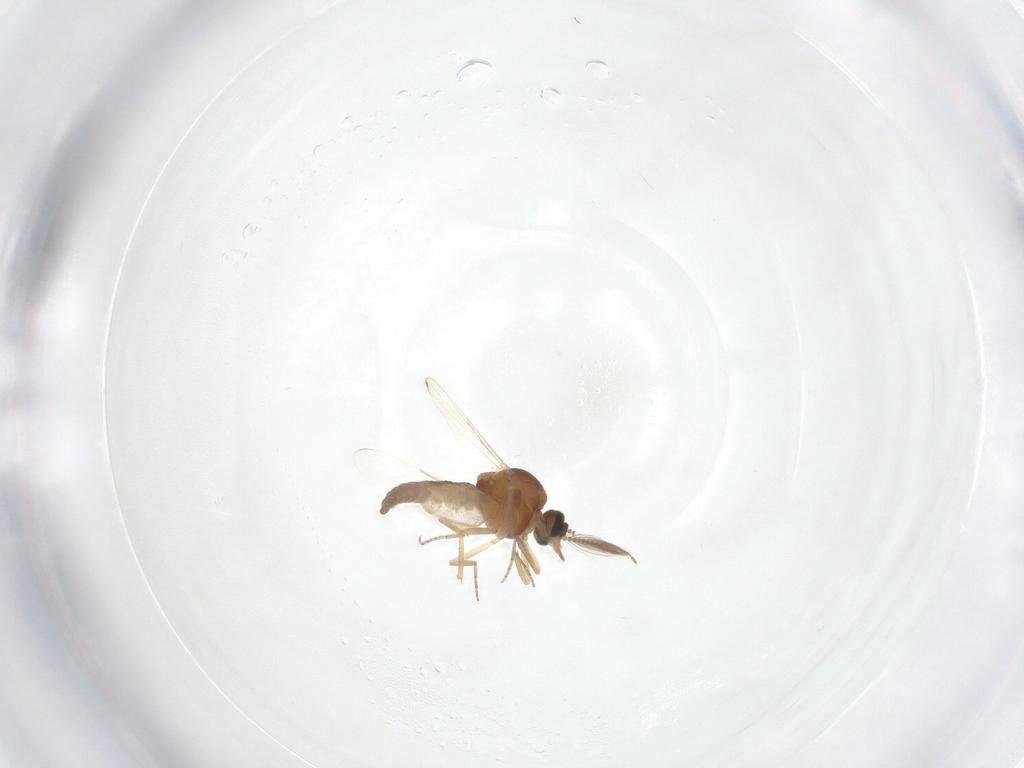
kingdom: Animalia
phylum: Arthropoda
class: Insecta
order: Diptera
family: Ceratopogonidae
